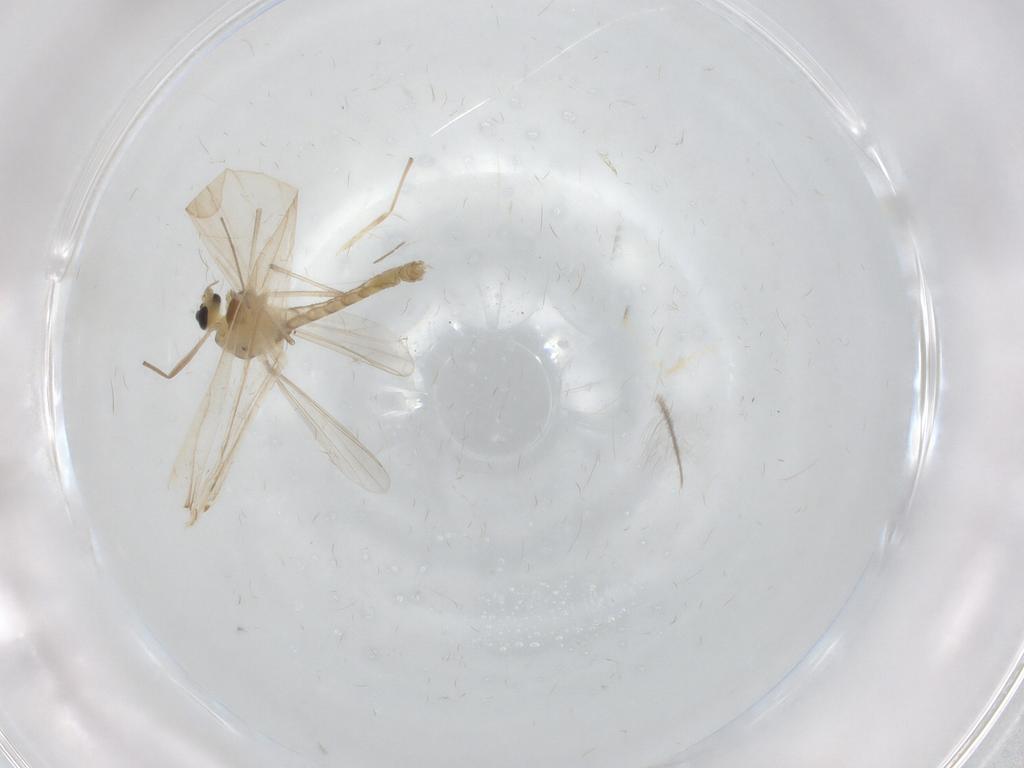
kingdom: Animalia
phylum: Arthropoda
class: Insecta
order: Diptera
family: Chironomidae
